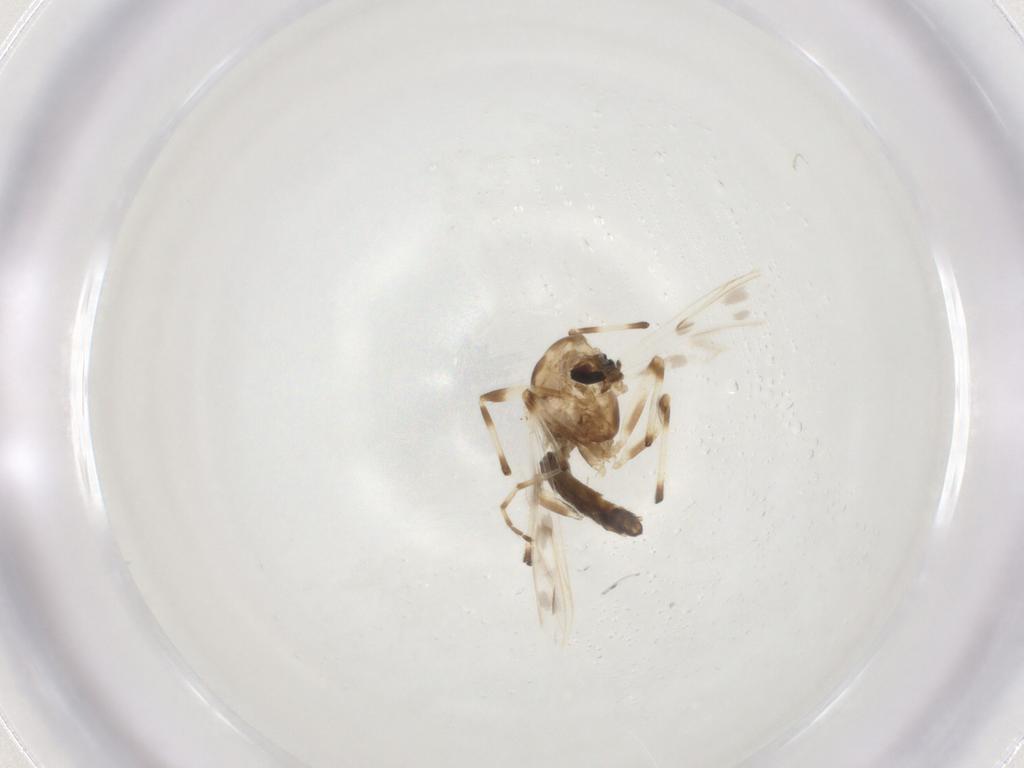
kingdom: Animalia
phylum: Arthropoda
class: Insecta
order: Diptera
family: Chironomidae
